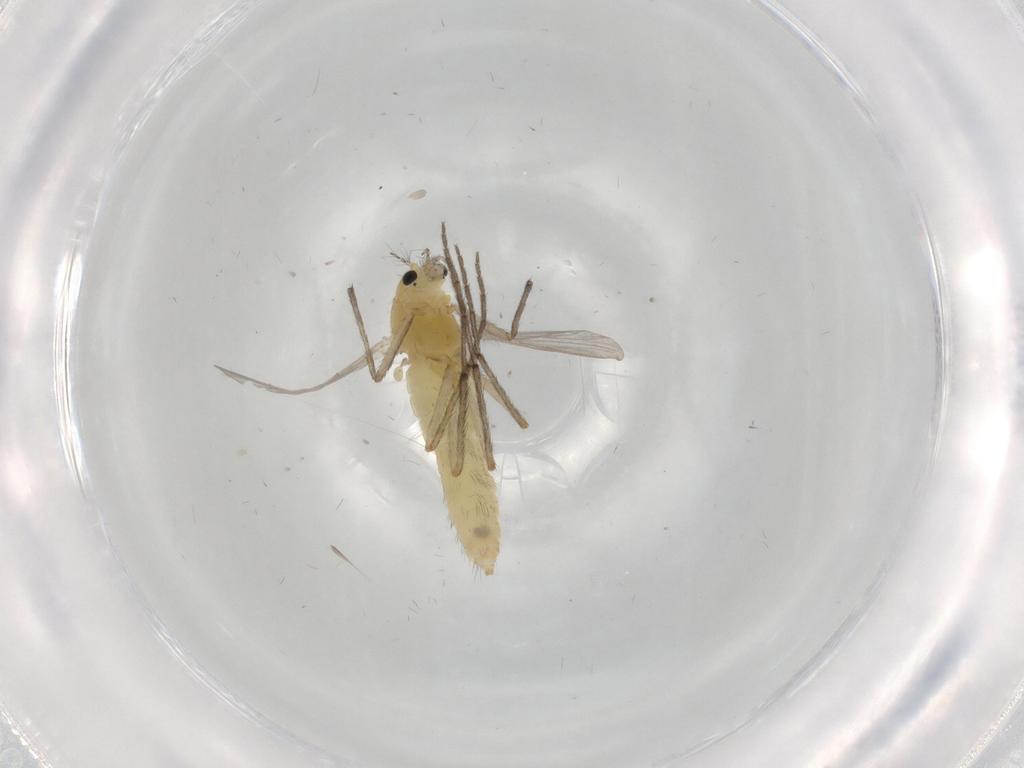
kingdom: Animalia
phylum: Arthropoda
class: Insecta
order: Diptera
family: Chironomidae
